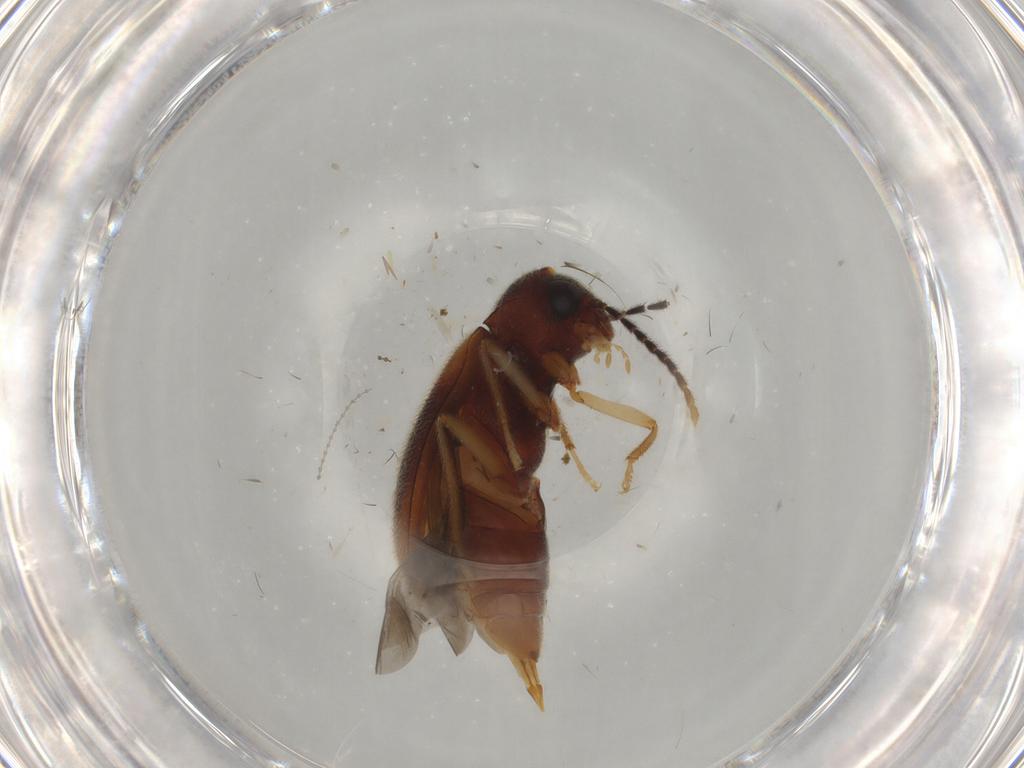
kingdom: Animalia
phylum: Arthropoda
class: Insecta
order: Coleoptera
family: Ptilodactylidae
